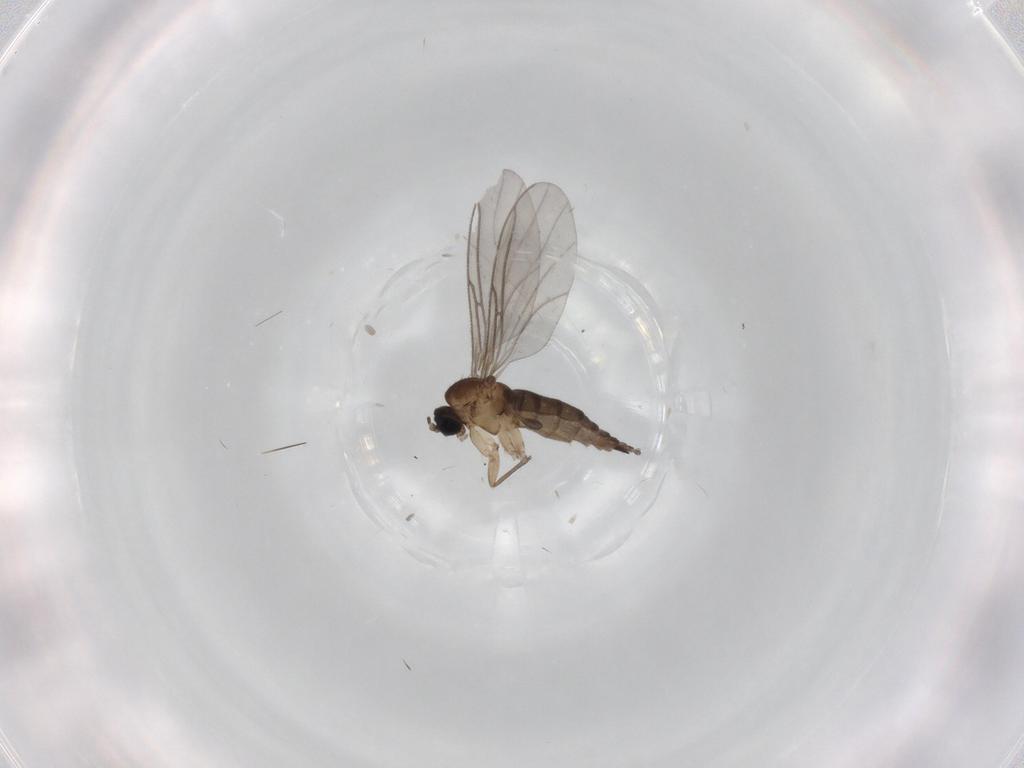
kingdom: Animalia
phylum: Arthropoda
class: Insecta
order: Diptera
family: Sciaridae
